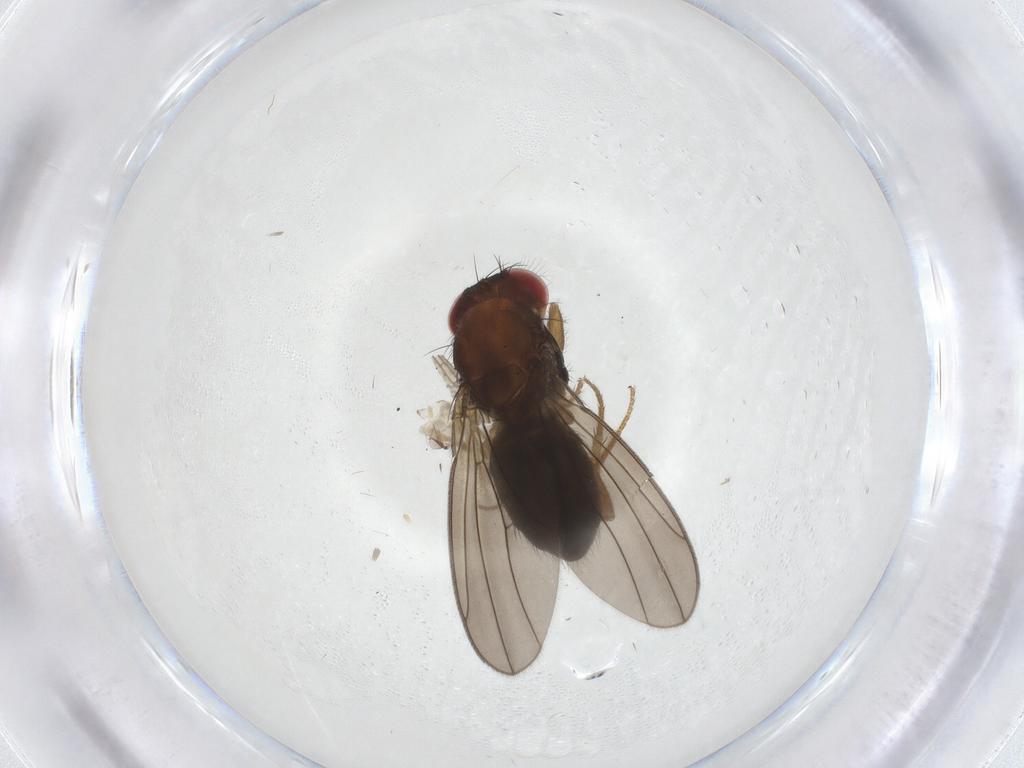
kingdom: Animalia
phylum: Arthropoda
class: Insecta
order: Diptera
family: Drosophilidae
